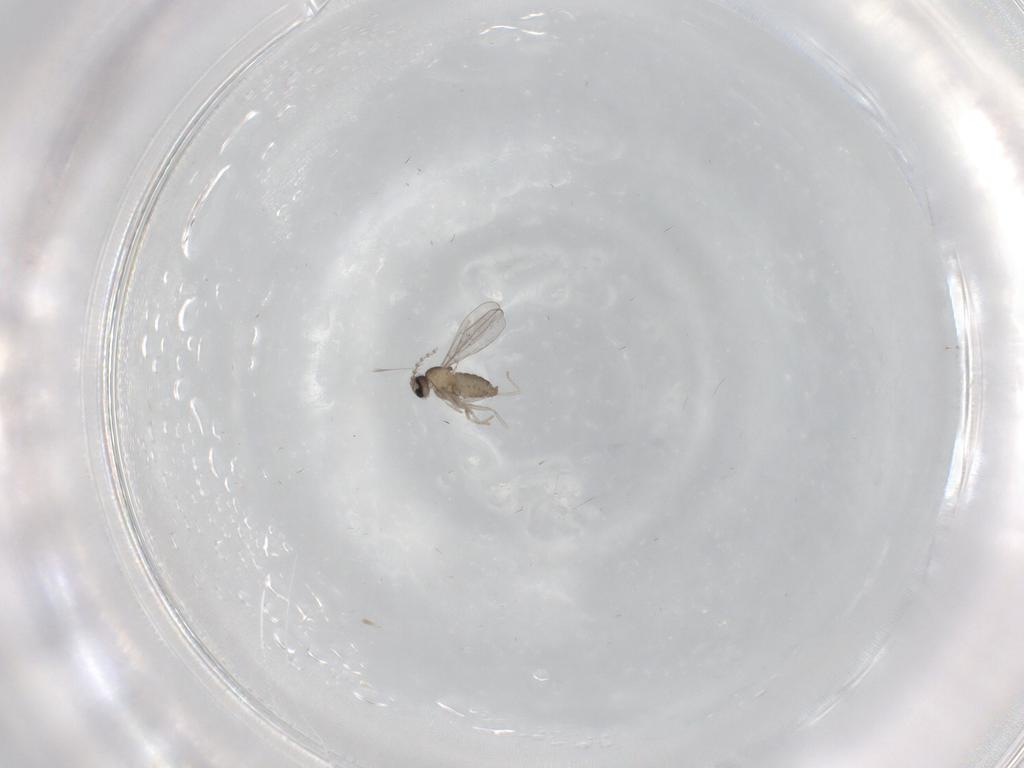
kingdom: Animalia
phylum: Arthropoda
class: Insecta
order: Diptera
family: Cecidomyiidae
